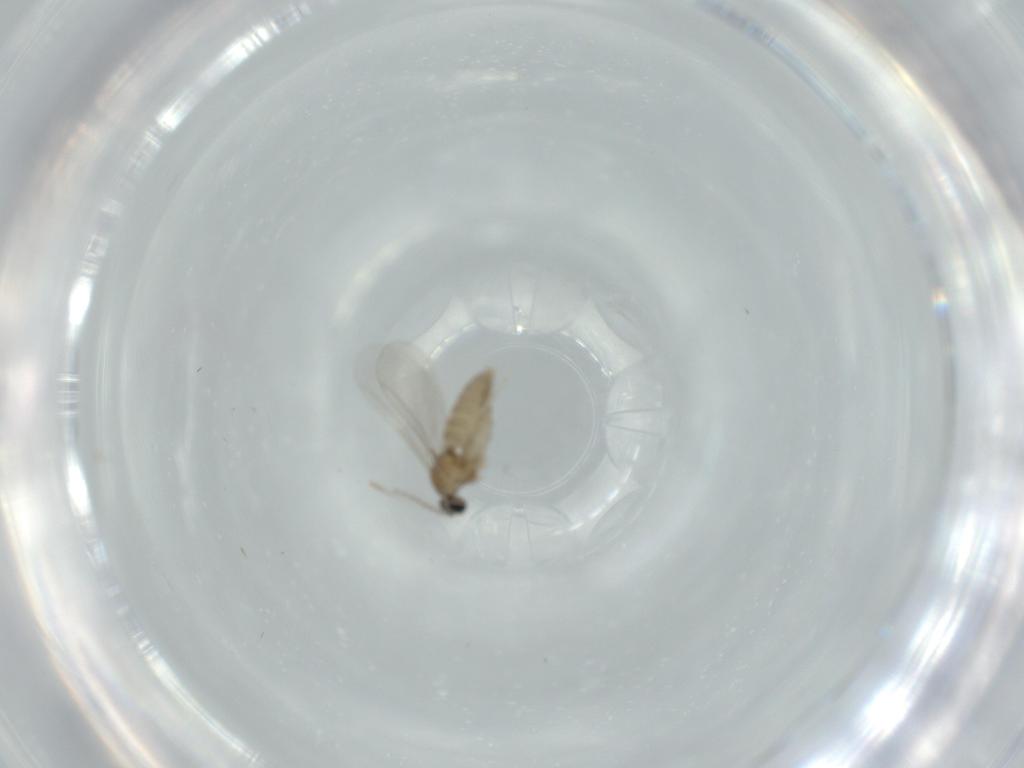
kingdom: Animalia
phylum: Arthropoda
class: Insecta
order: Diptera
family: Cecidomyiidae
